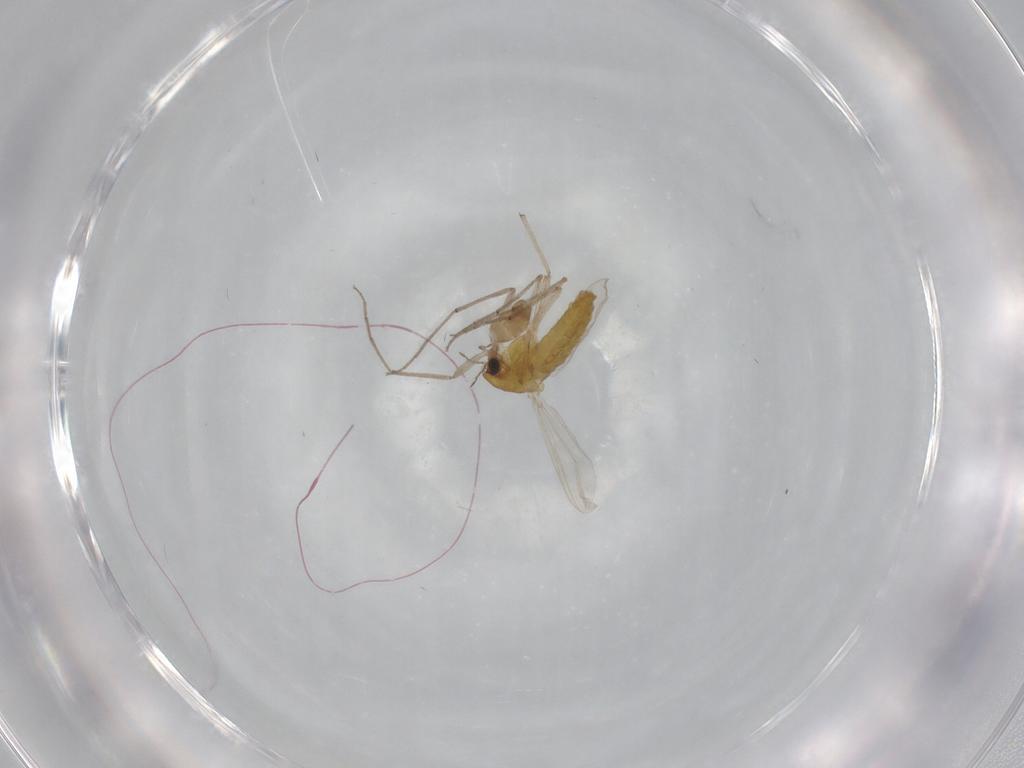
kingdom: Animalia
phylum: Arthropoda
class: Insecta
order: Diptera
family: Chironomidae
